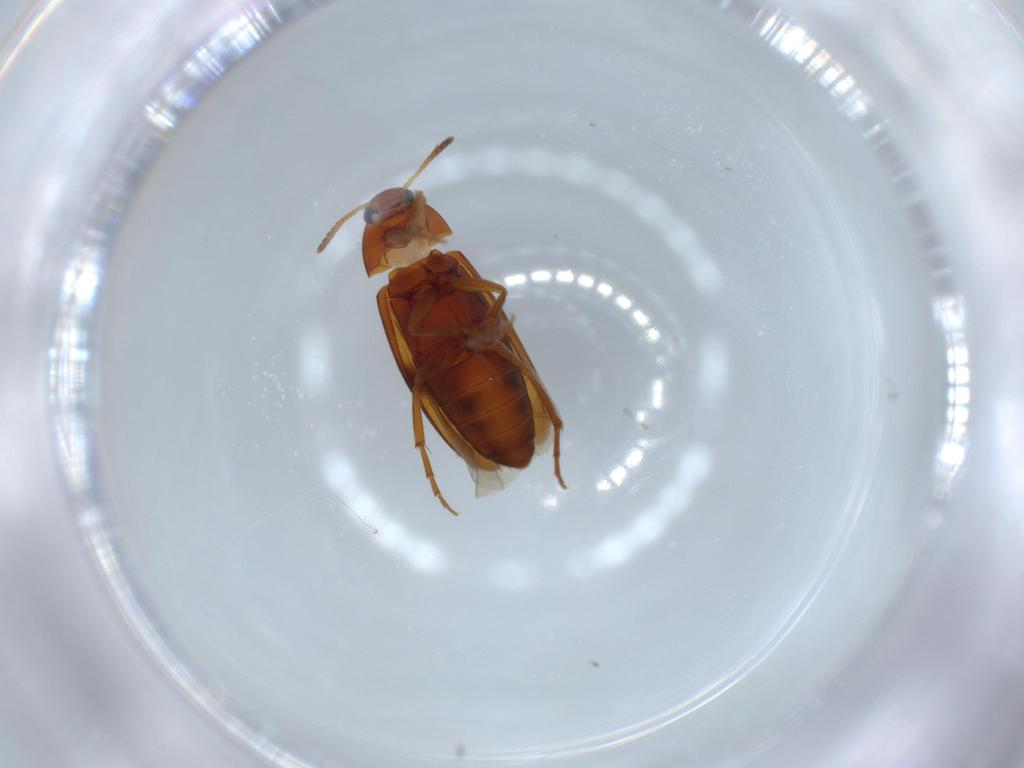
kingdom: Animalia
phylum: Arthropoda
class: Insecta
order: Coleoptera
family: Scraptiidae
